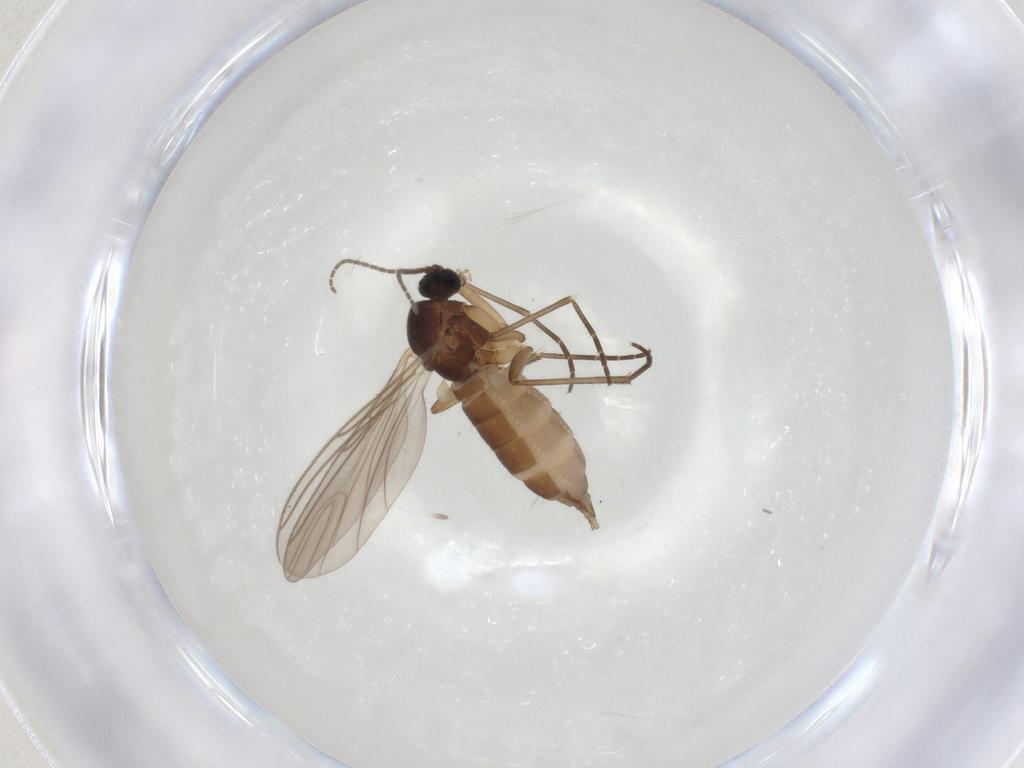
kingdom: Animalia
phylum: Arthropoda
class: Insecta
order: Diptera
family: Sciaridae
